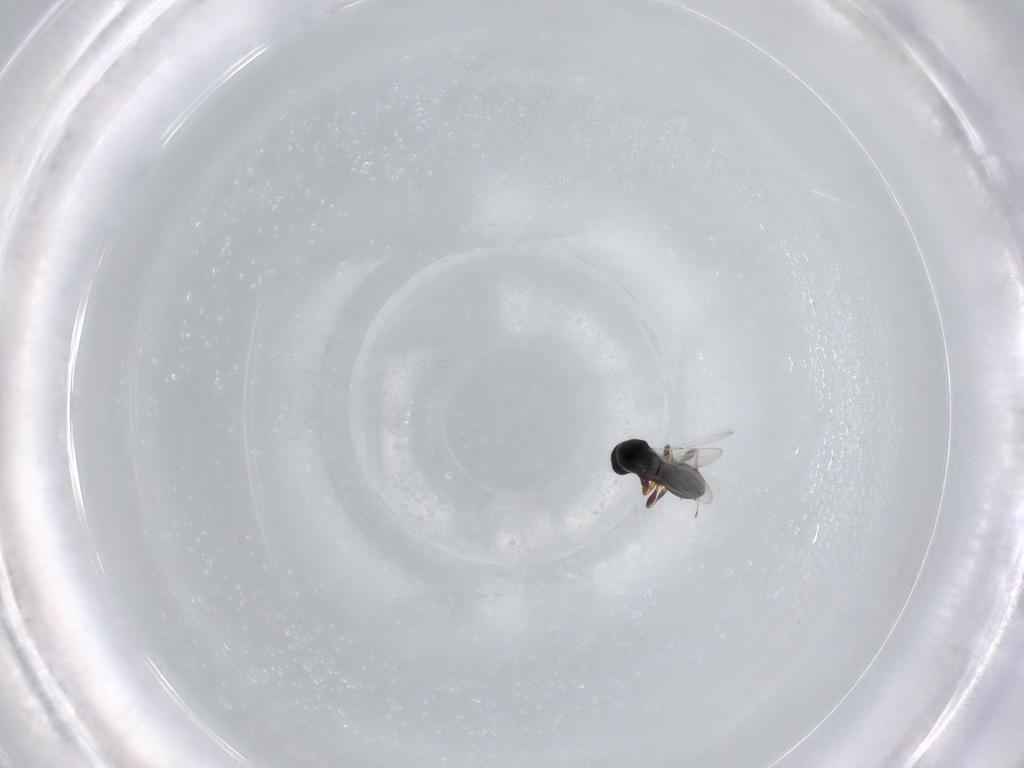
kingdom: Animalia
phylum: Arthropoda
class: Insecta
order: Hymenoptera
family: Platygastridae
